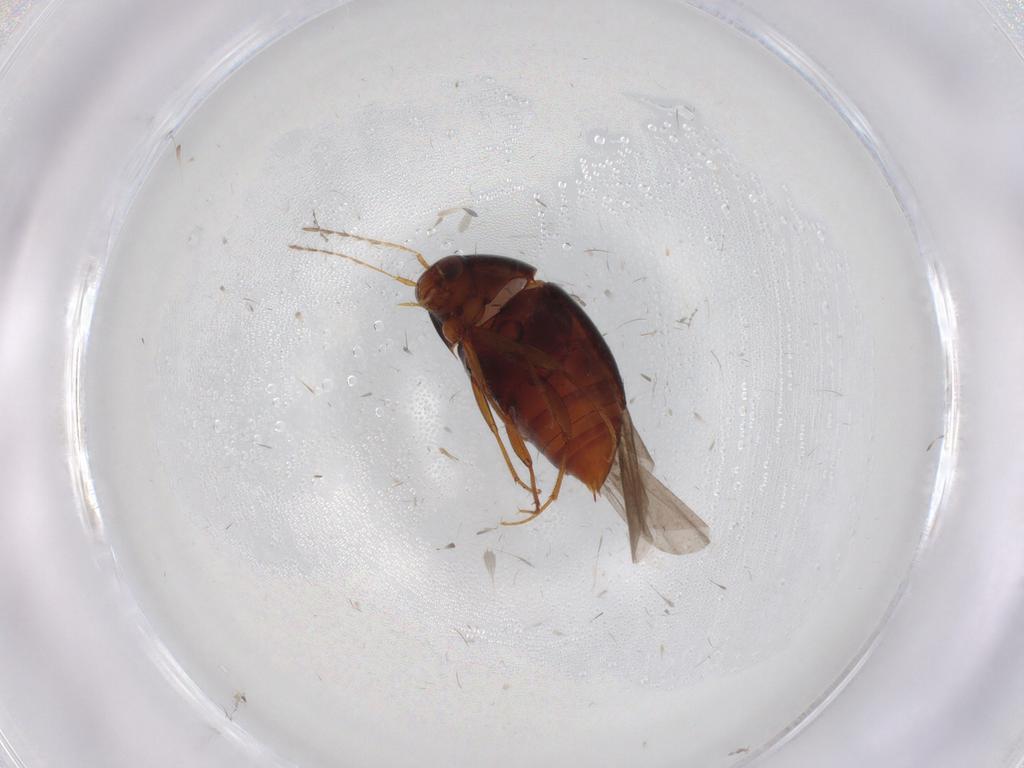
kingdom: Animalia
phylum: Arthropoda
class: Insecta
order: Coleoptera
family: Staphylinidae
